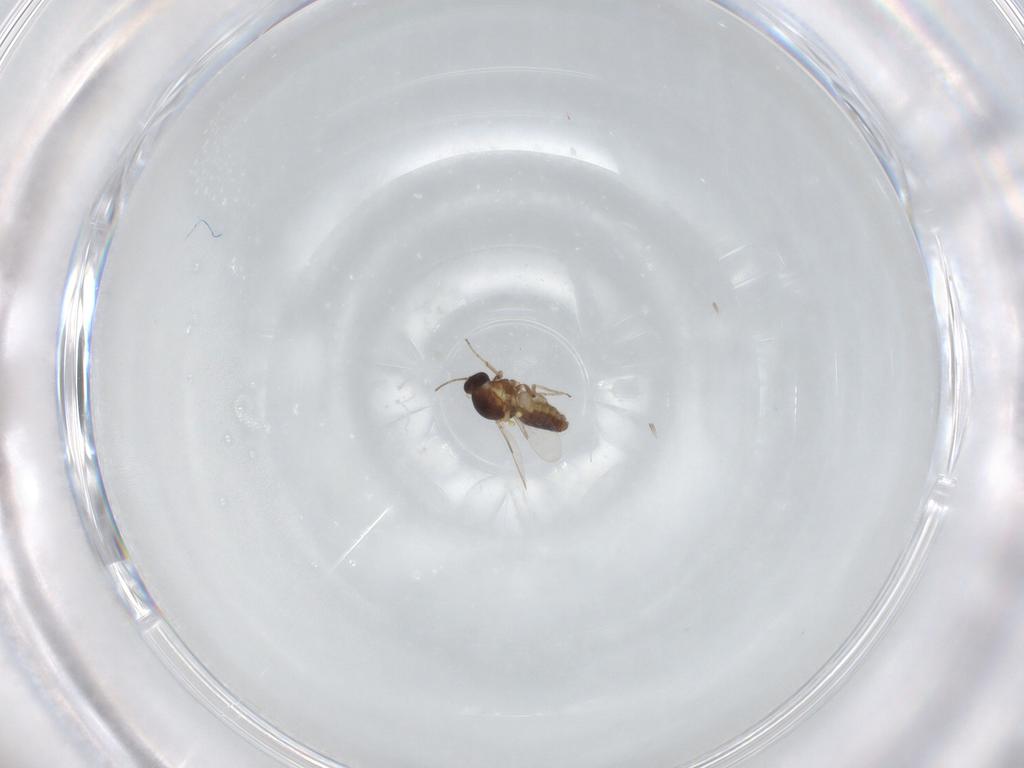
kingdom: Animalia
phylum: Arthropoda
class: Insecta
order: Diptera
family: Ceratopogonidae
